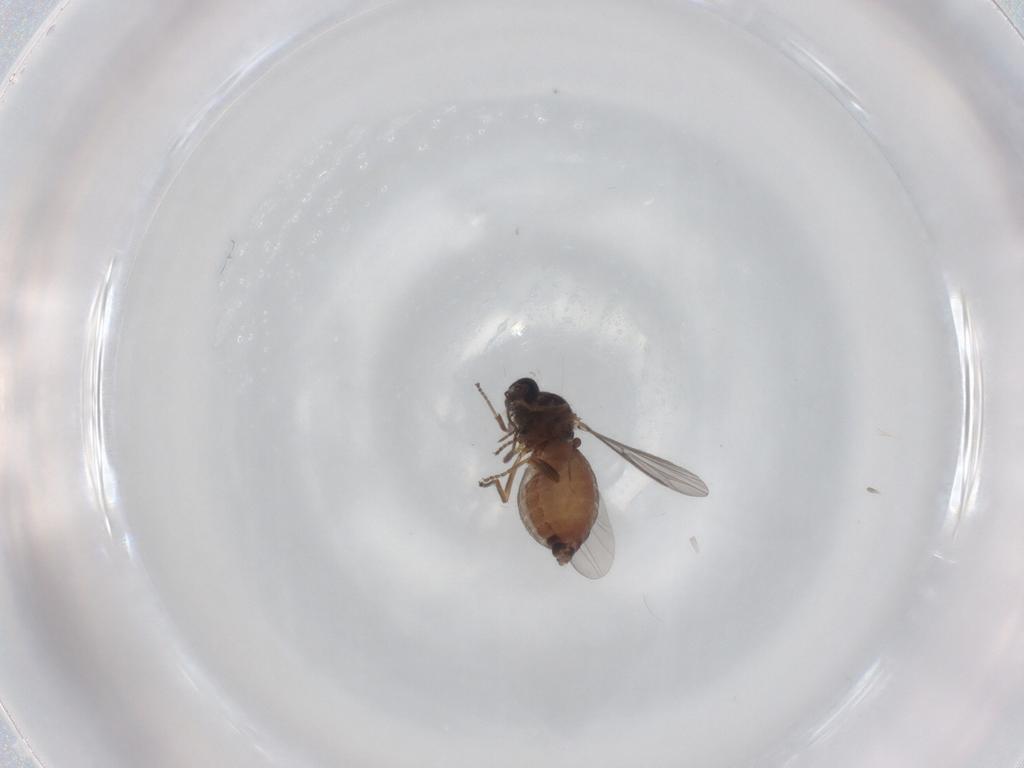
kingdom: Animalia
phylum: Arthropoda
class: Insecta
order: Diptera
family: Ceratopogonidae
